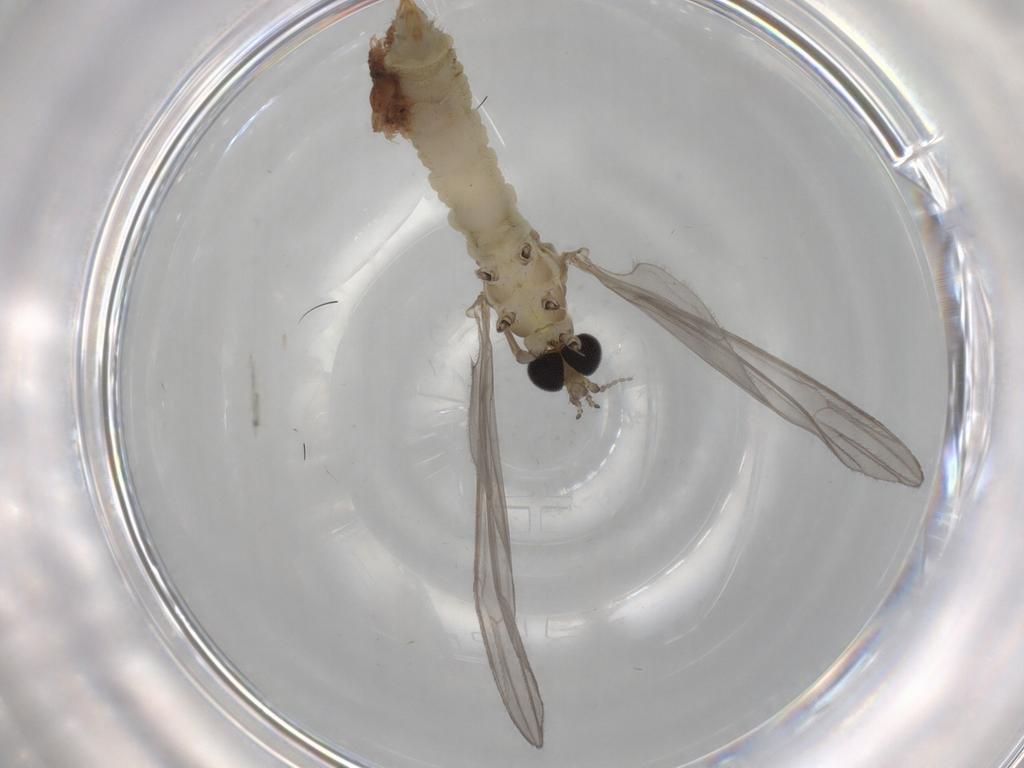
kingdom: Animalia
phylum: Arthropoda
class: Insecta
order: Diptera
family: Limoniidae
